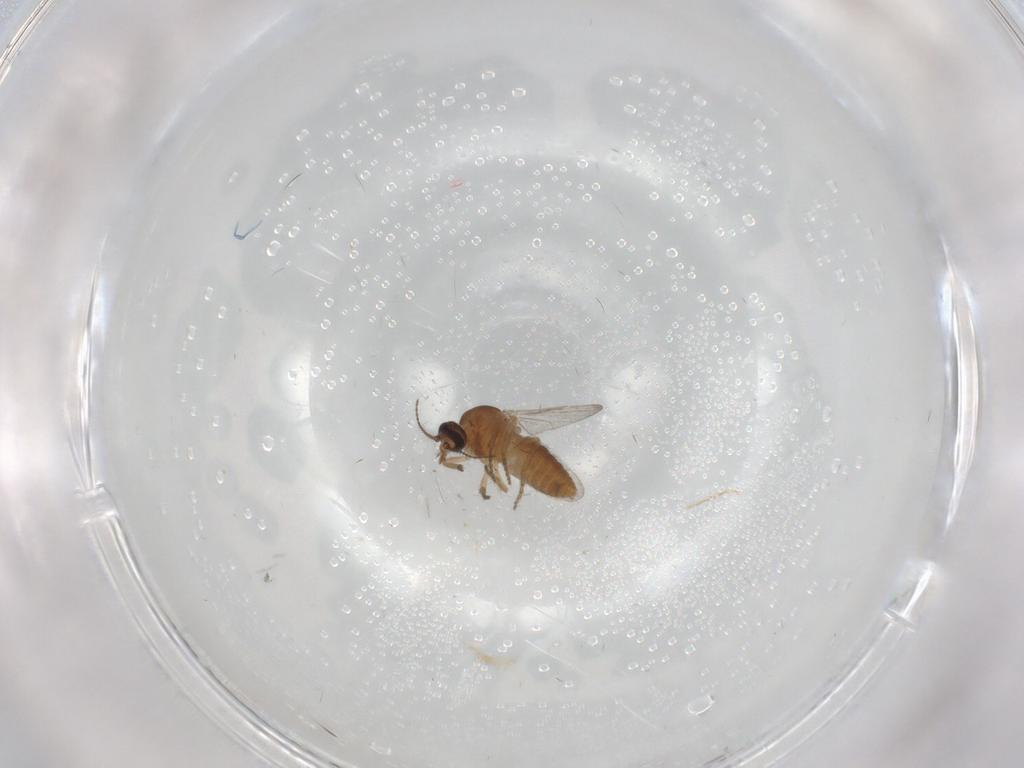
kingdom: Animalia
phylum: Arthropoda
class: Insecta
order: Diptera
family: Ceratopogonidae
